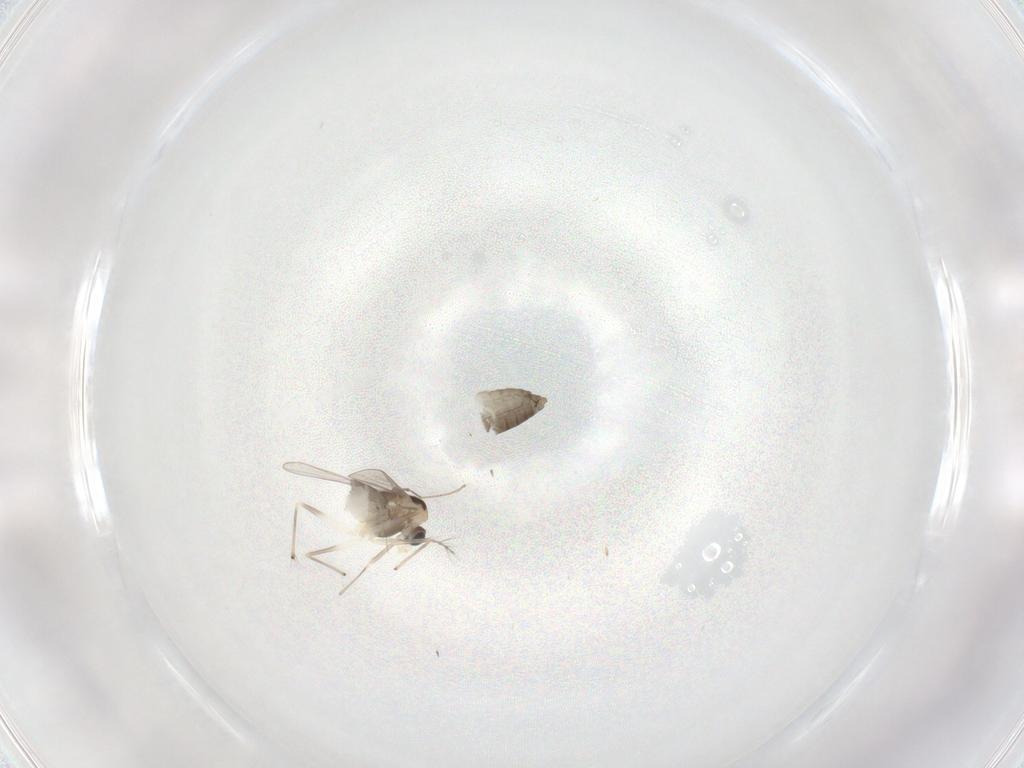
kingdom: Animalia
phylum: Arthropoda
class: Insecta
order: Diptera
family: Chironomidae
